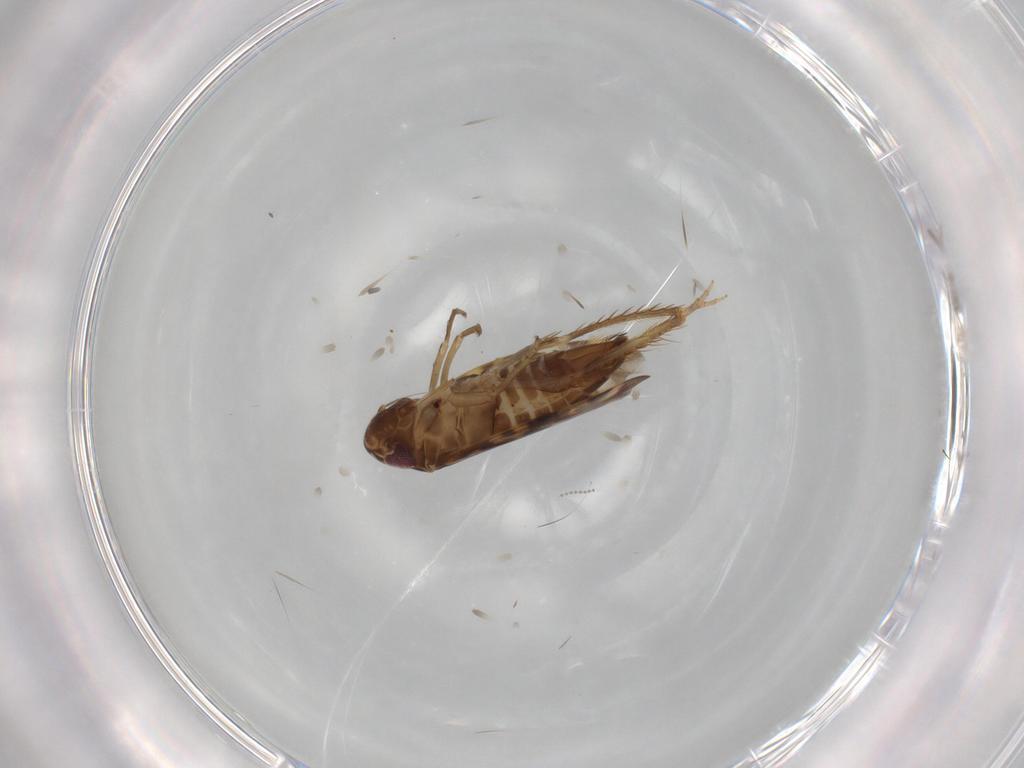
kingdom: Animalia
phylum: Arthropoda
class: Insecta
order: Hemiptera
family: Cicadellidae
